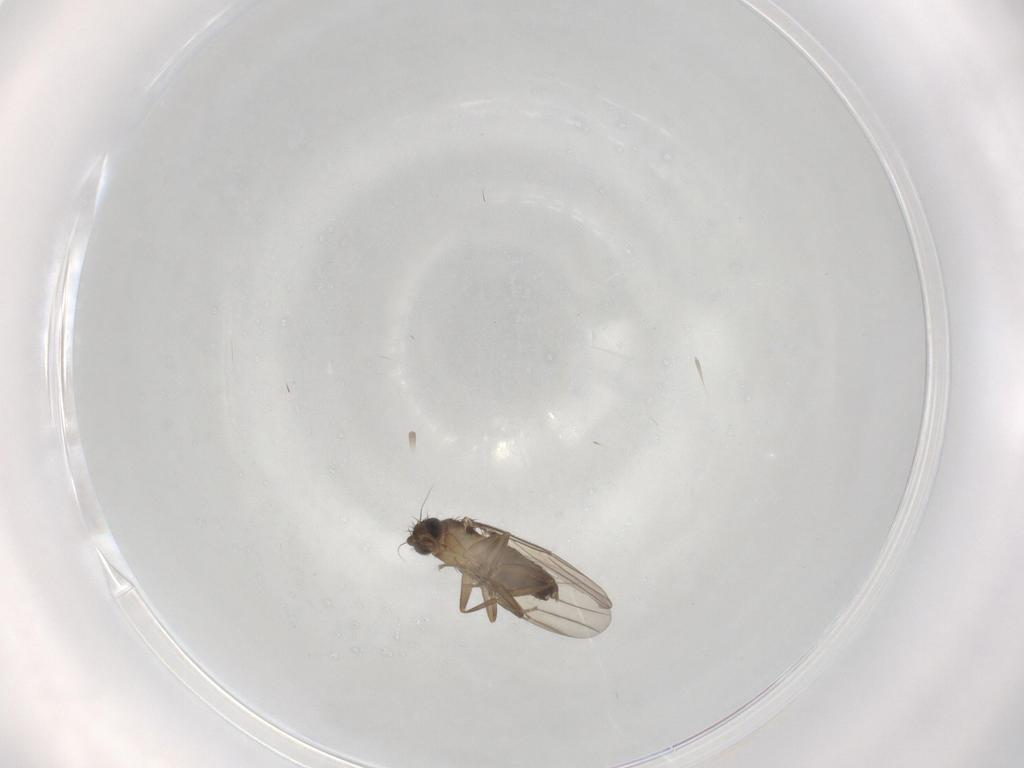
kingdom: Animalia
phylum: Arthropoda
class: Insecta
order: Diptera
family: Phoridae
